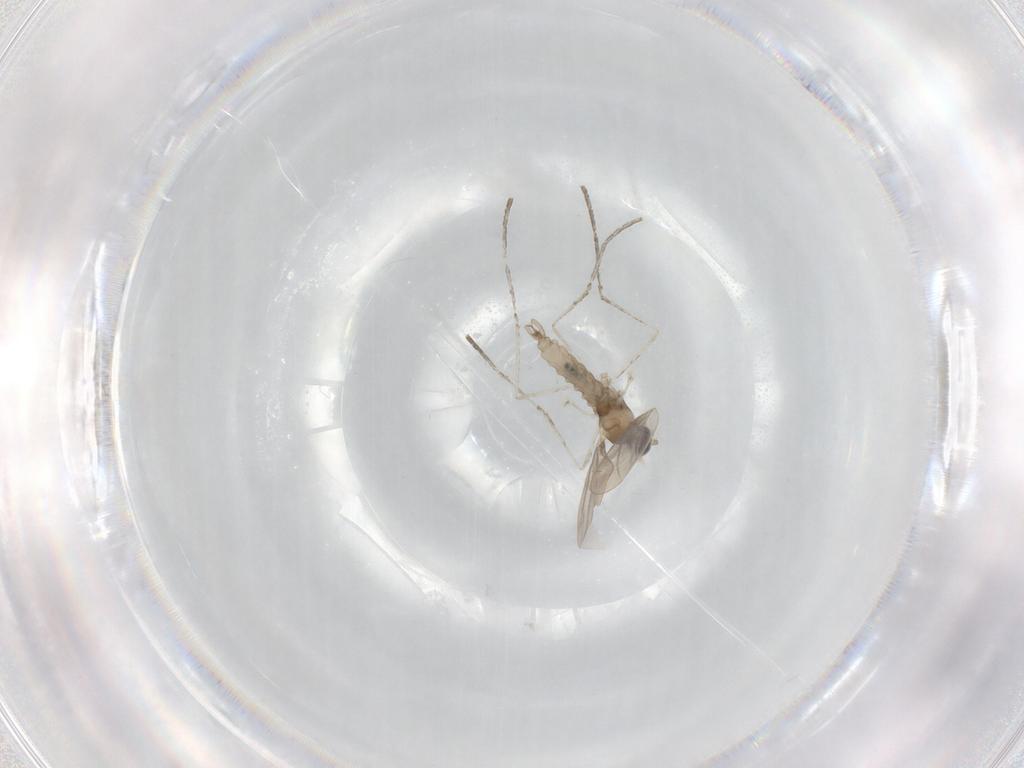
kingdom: Animalia
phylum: Arthropoda
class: Insecta
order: Diptera
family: Cecidomyiidae
